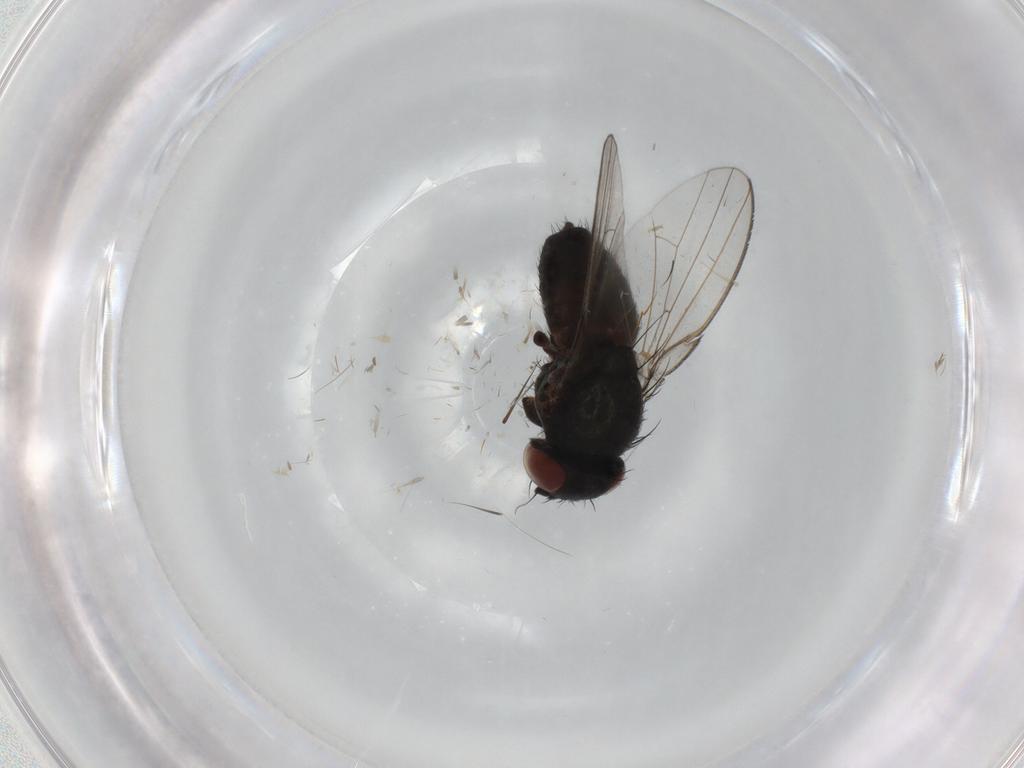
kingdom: Animalia
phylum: Arthropoda
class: Insecta
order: Diptera
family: Milichiidae
